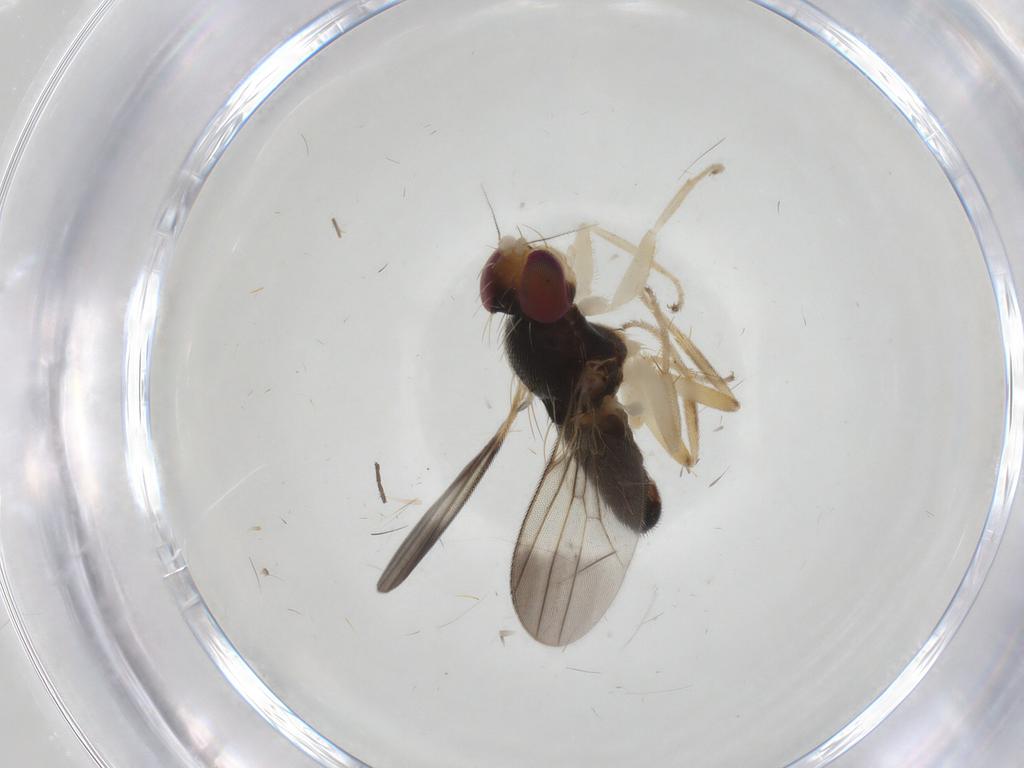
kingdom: Animalia
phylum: Arthropoda
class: Insecta
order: Diptera
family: Clusiidae
